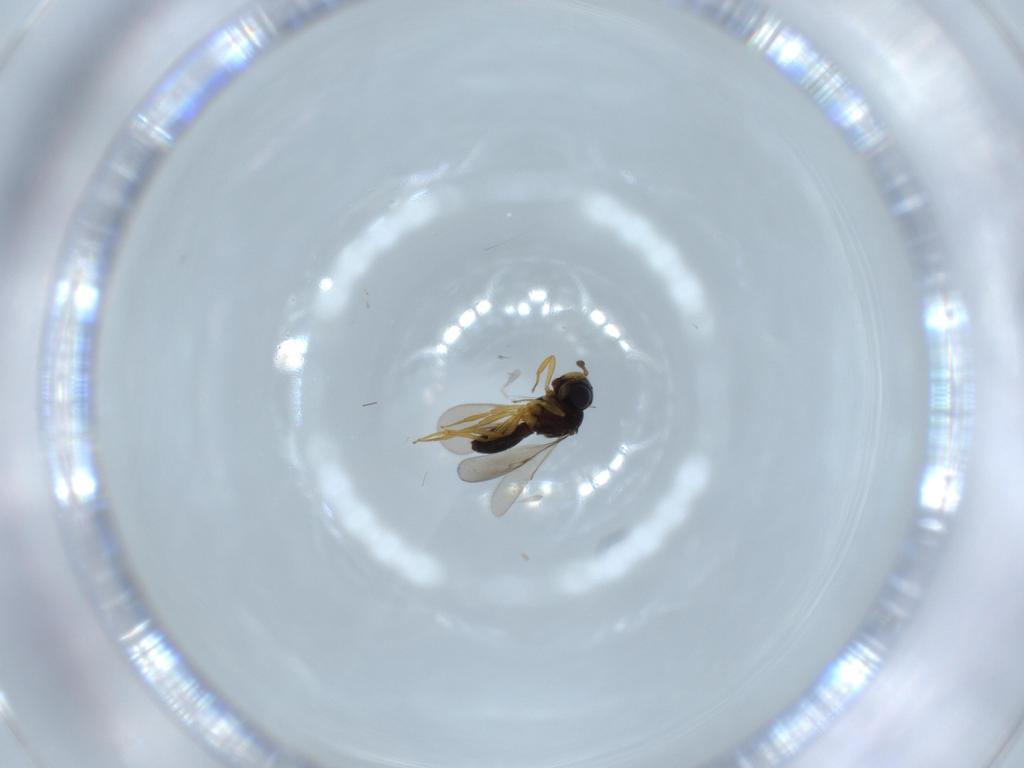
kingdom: Animalia
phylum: Arthropoda
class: Insecta
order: Hymenoptera
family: Scelionidae
